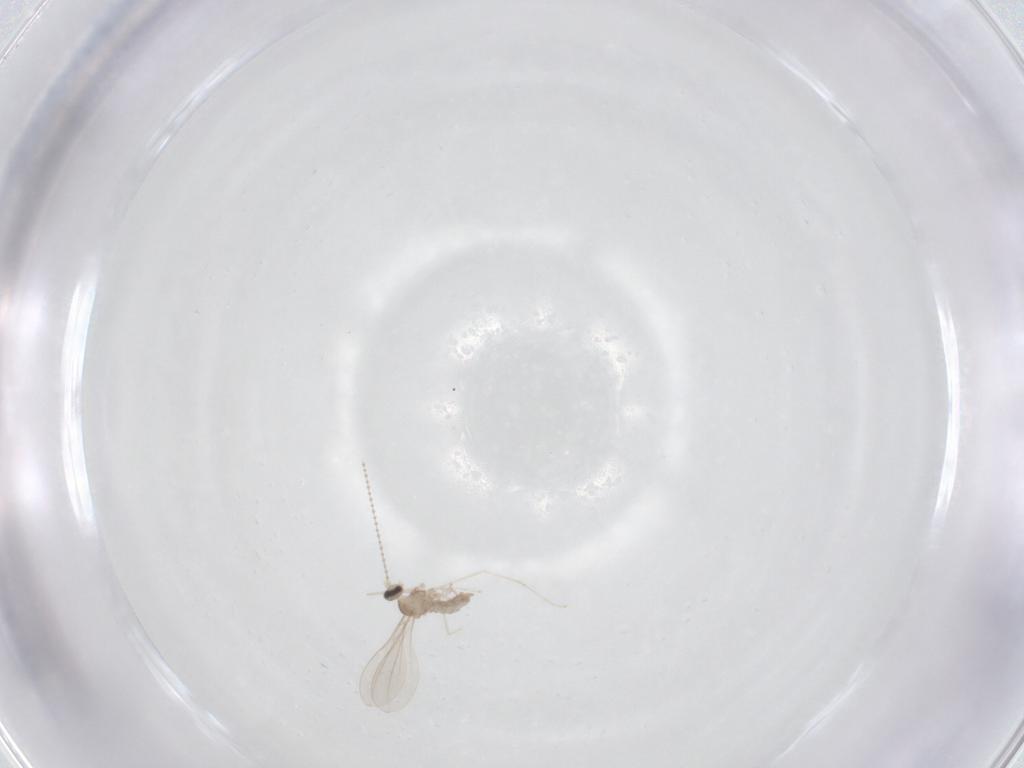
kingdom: Animalia
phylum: Arthropoda
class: Insecta
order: Diptera
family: Cecidomyiidae
